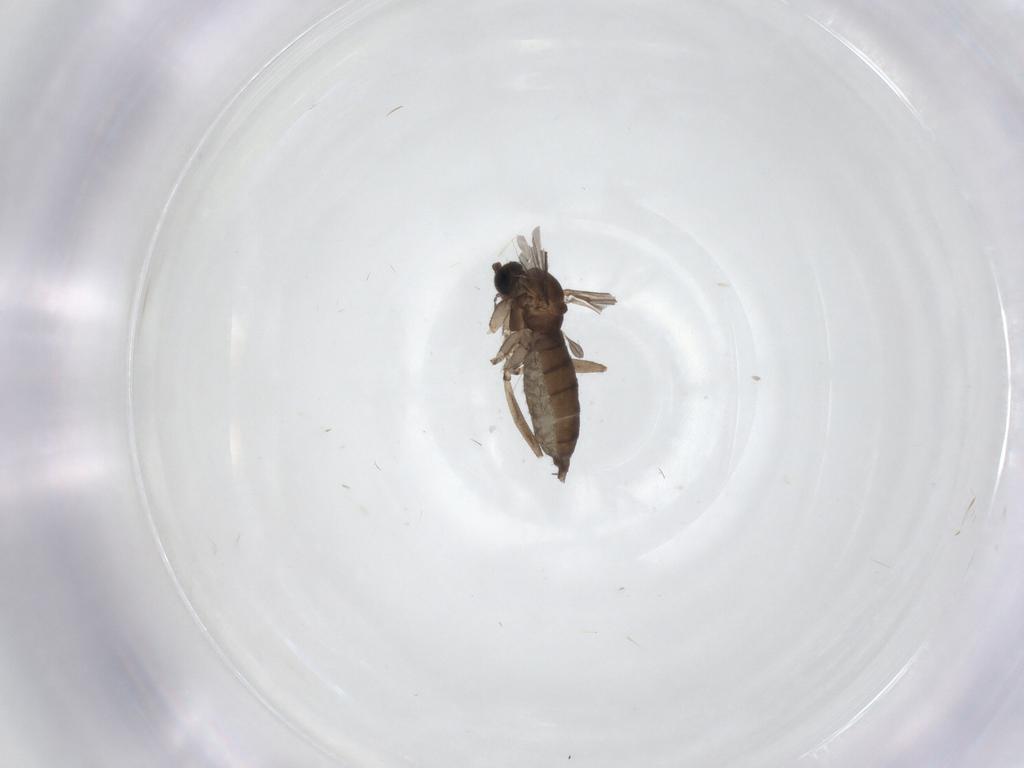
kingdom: Animalia
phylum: Arthropoda
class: Insecta
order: Diptera
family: Sciaridae
